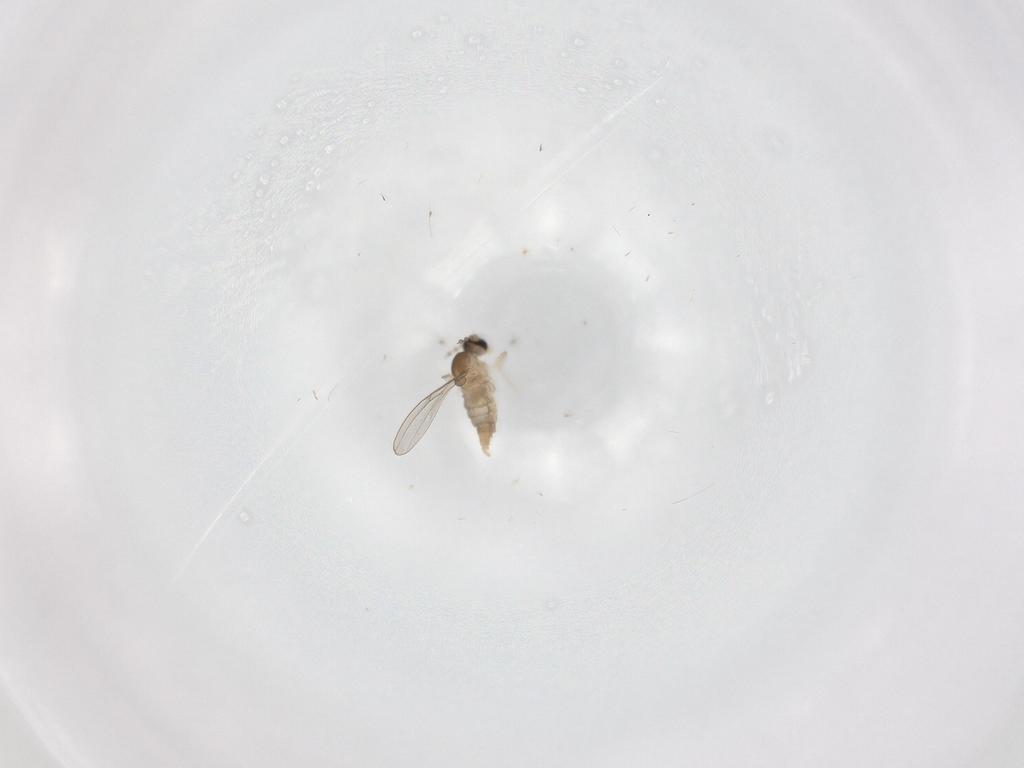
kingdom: Animalia
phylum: Arthropoda
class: Insecta
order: Diptera
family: Cecidomyiidae
